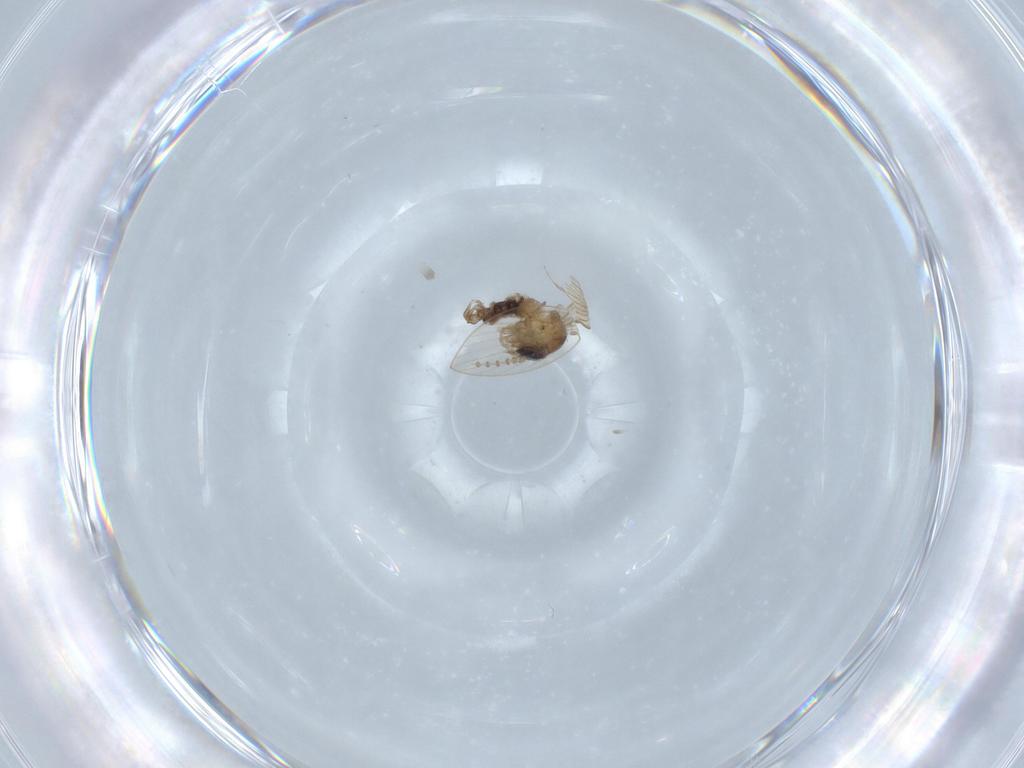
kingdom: Animalia
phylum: Arthropoda
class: Insecta
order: Diptera
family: Psychodidae
